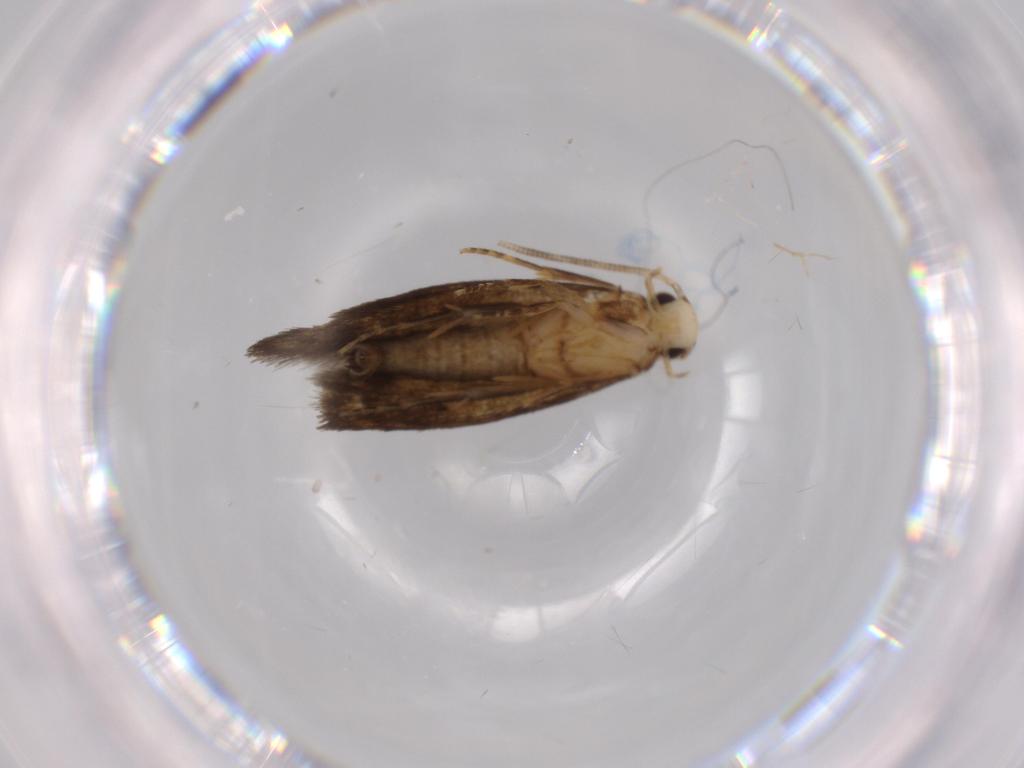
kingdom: Animalia
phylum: Arthropoda
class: Insecta
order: Lepidoptera
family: Tineidae
